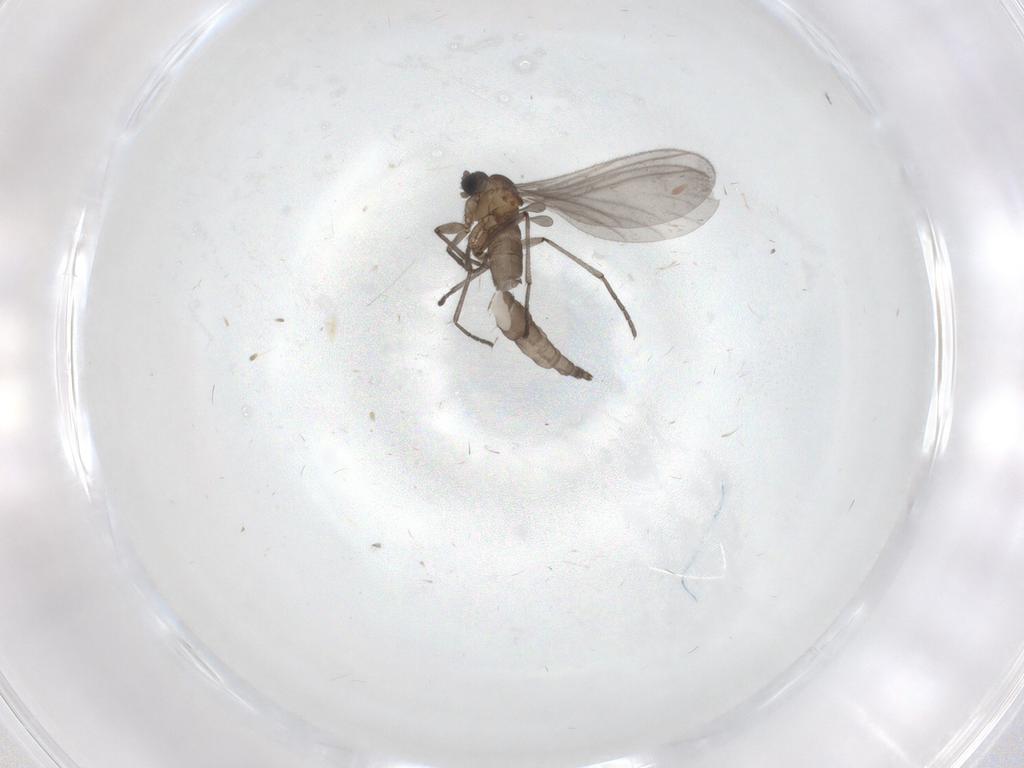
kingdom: Animalia
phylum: Arthropoda
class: Insecta
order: Diptera
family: Sciaridae
